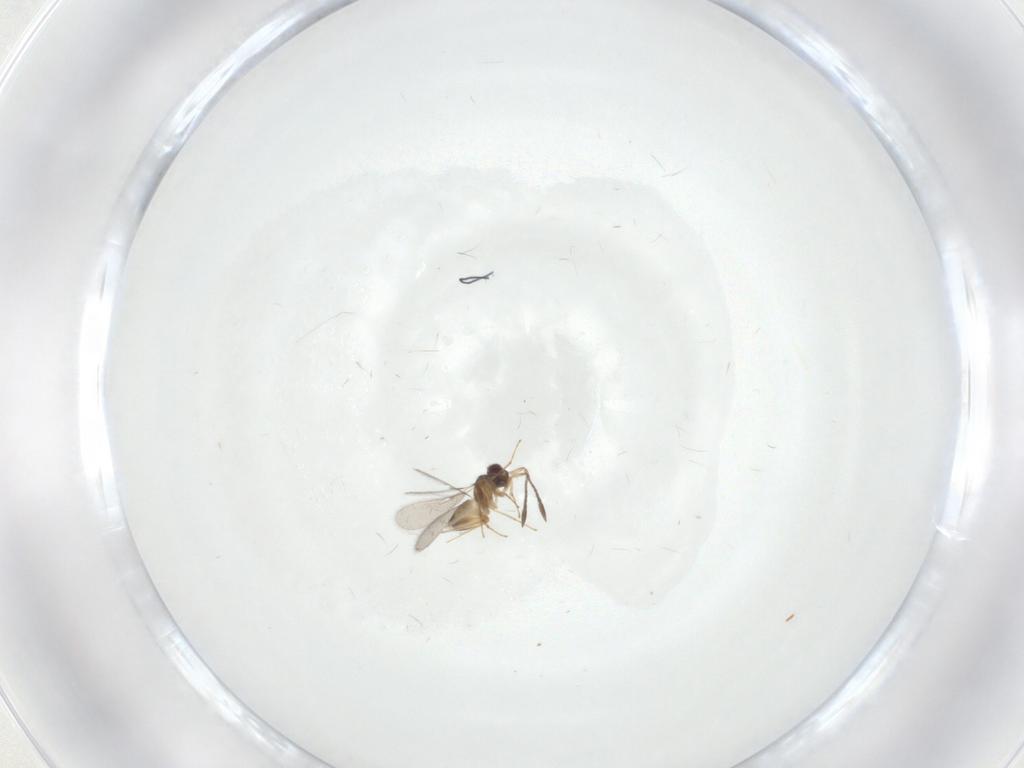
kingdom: Animalia
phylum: Arthropoda
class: Insecta
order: Hymenoptera
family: Mymaridae
